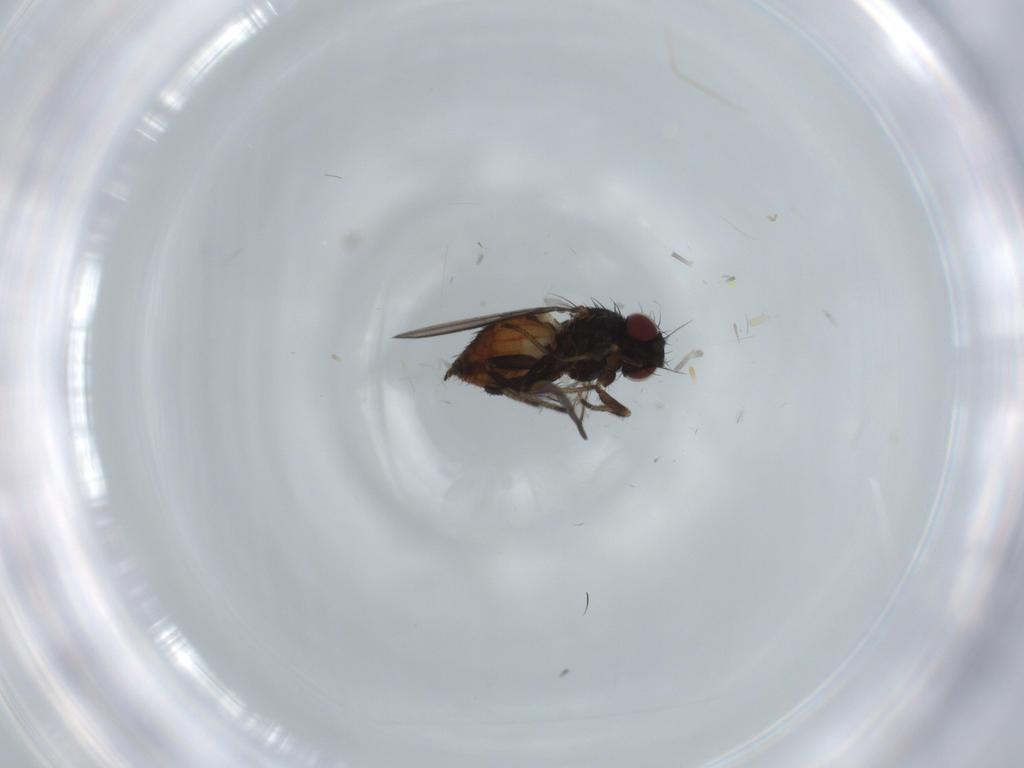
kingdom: Animalia
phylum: Arthropoda
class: Insecta
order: Diptera
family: Milichiidae
